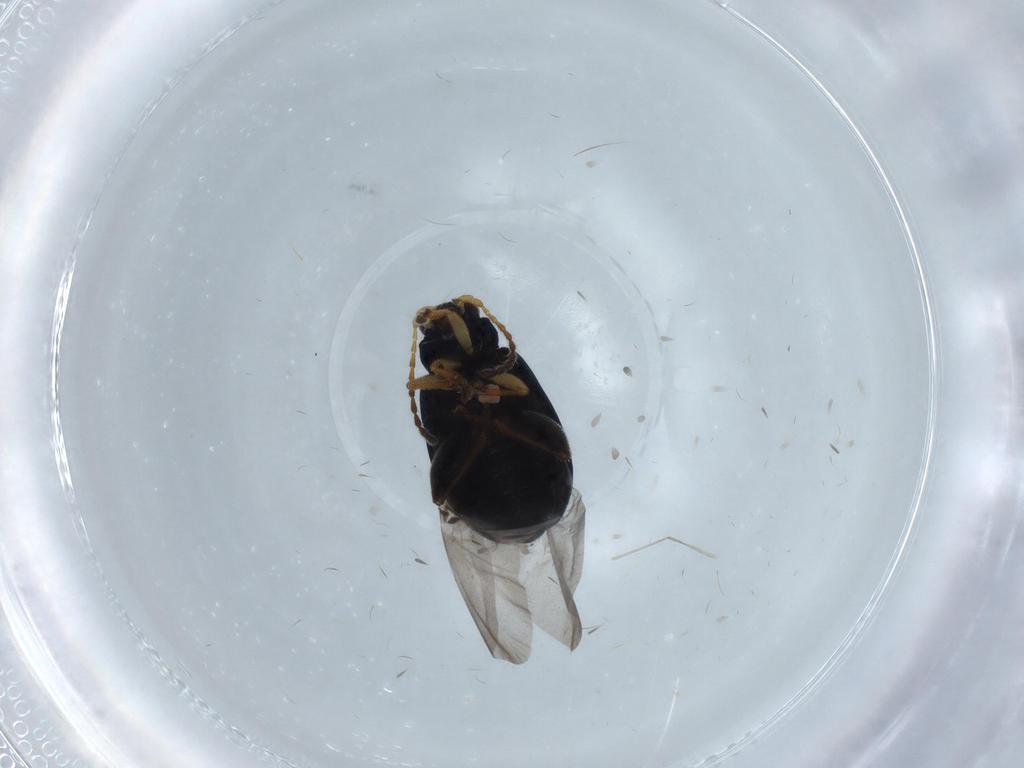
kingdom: Animalia
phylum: Arthropoda
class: Insecta
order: Coleoptera
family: Chrysomelidae
